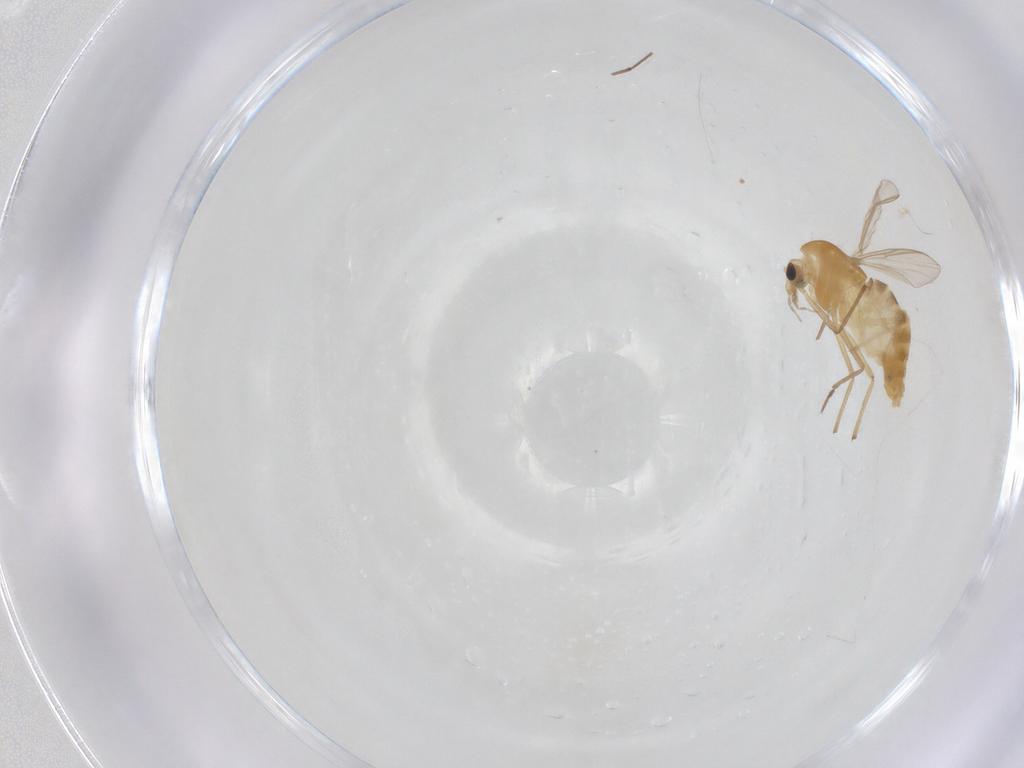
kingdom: Animalia
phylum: Arthropoda
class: Insecta
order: Diptera
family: Chironomidae
